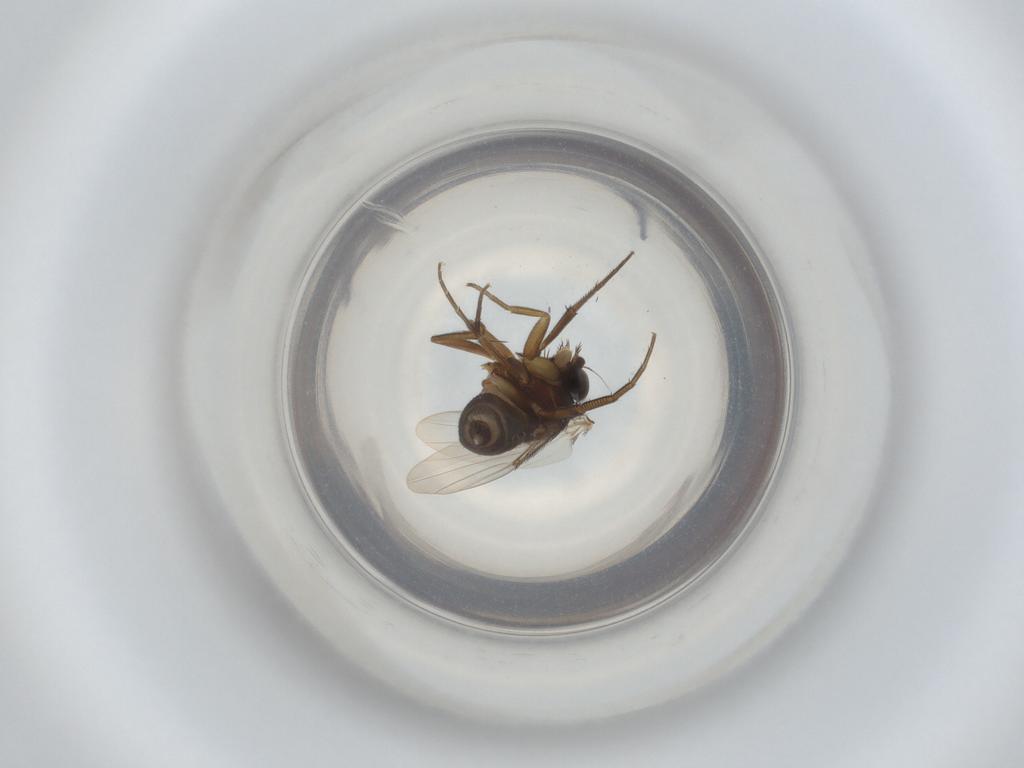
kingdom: Animalia
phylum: Arthropoda
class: Insecta
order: Diptera
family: Phoridae
